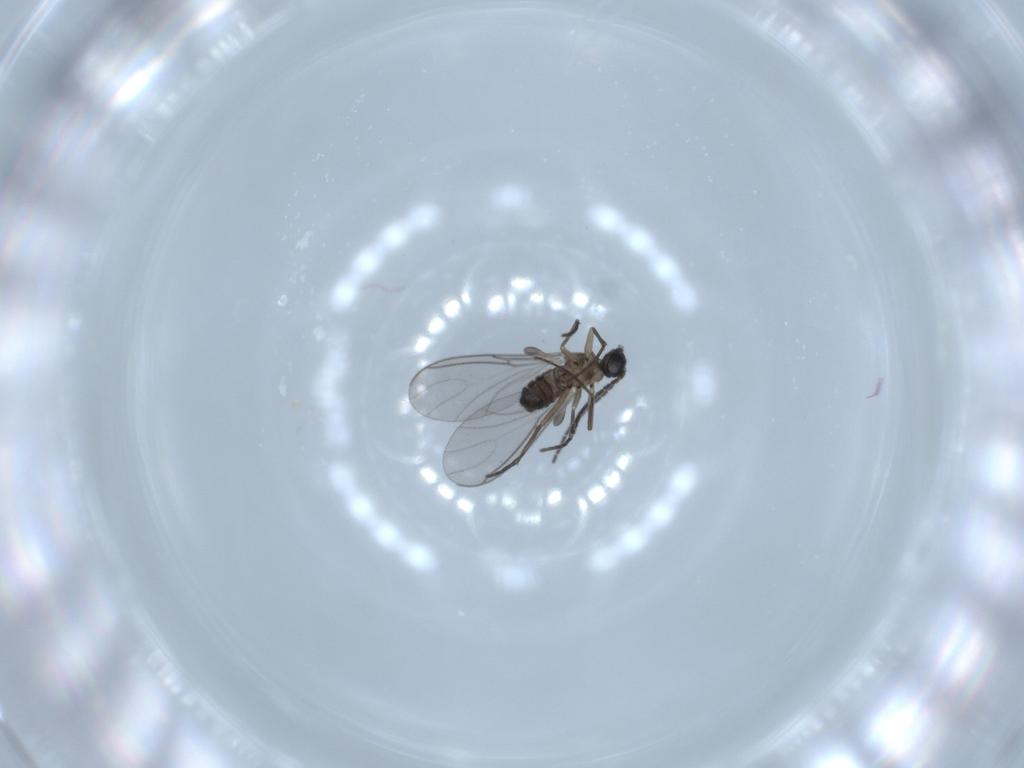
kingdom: Animalia
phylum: Arthropoda
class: Insecta
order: Diptera
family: Sciaridae
